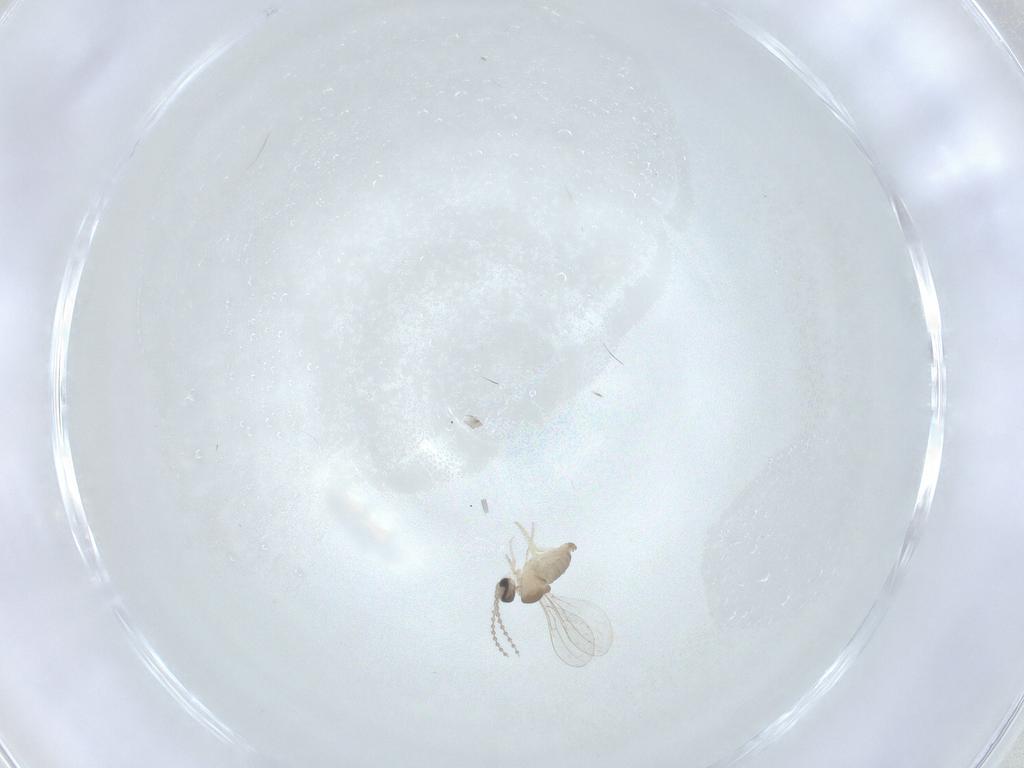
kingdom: Animalia
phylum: Arthropoda
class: Insecta
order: Diptera
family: Cecidomyiidae
